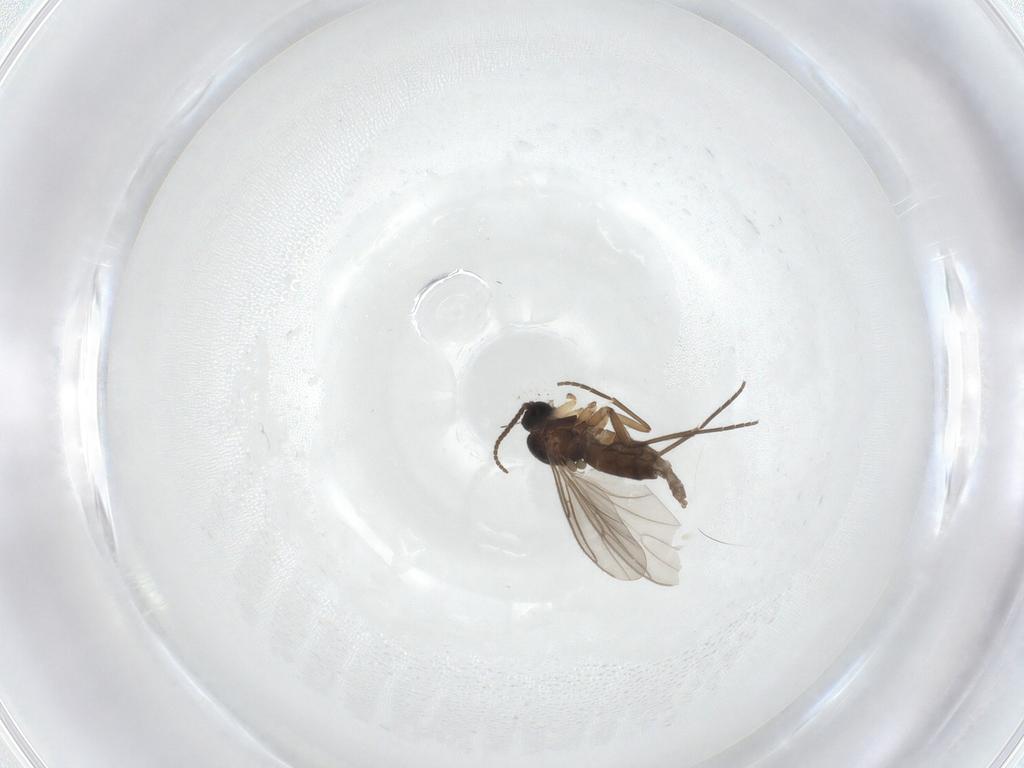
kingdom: Animalia
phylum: Arthropoda
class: Insecta
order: Diptera
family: Sciaridae
